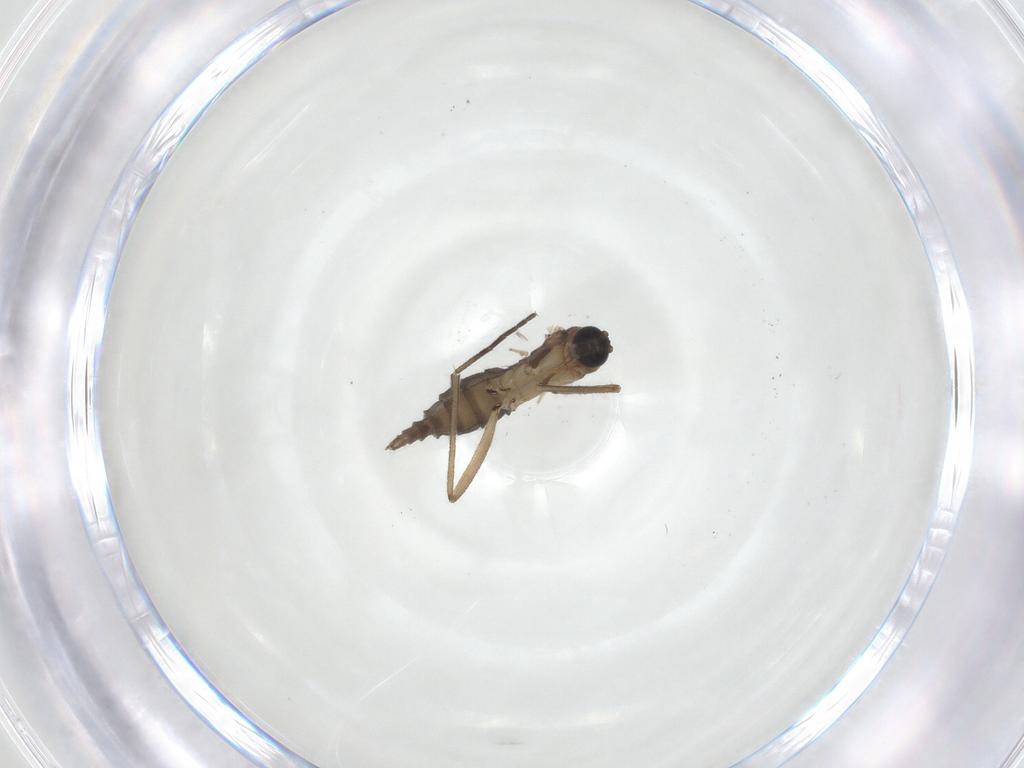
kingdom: Animalia
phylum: Arthropoda
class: Insecta
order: Diptera
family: Sciaridae
